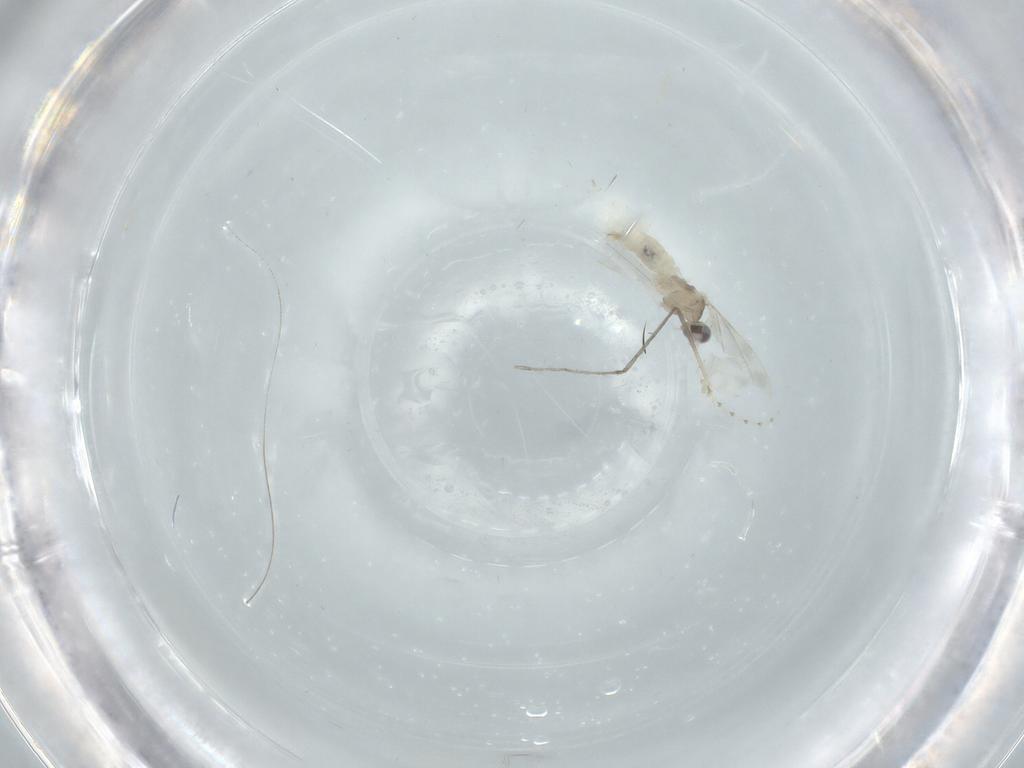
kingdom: Animalia
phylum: Arthropoda
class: Insecta
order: Diptera
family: Cecidomyiidae
